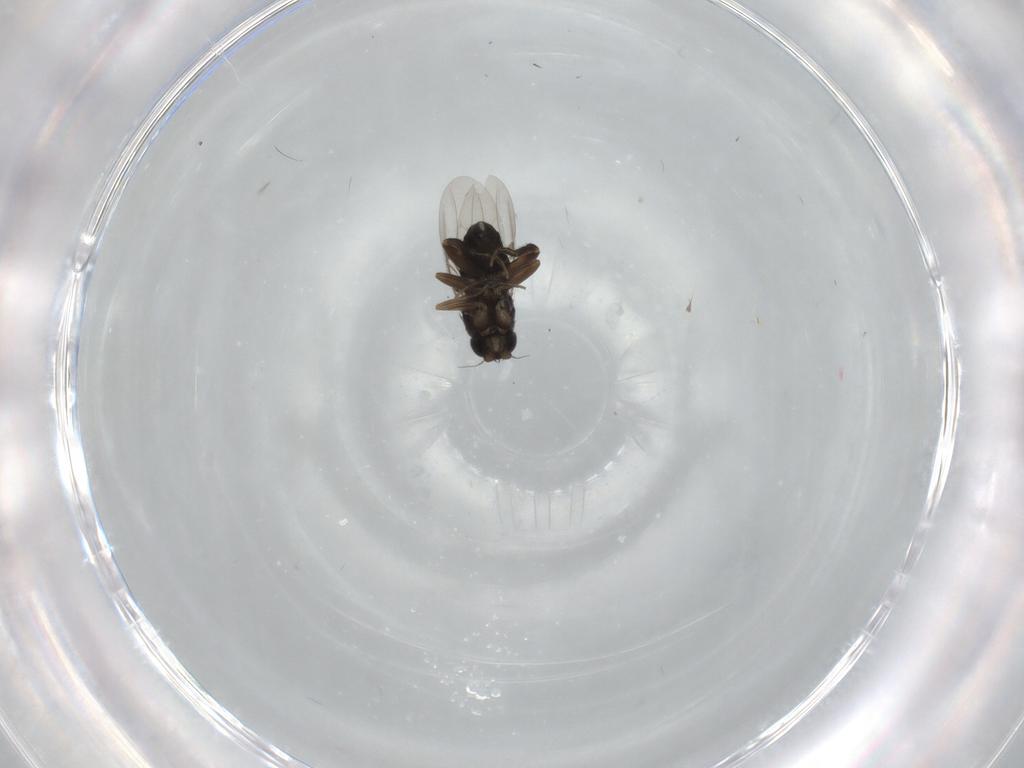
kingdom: Animalia
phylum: Arthropoda
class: Insecta
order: Diptera
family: Phoridae
